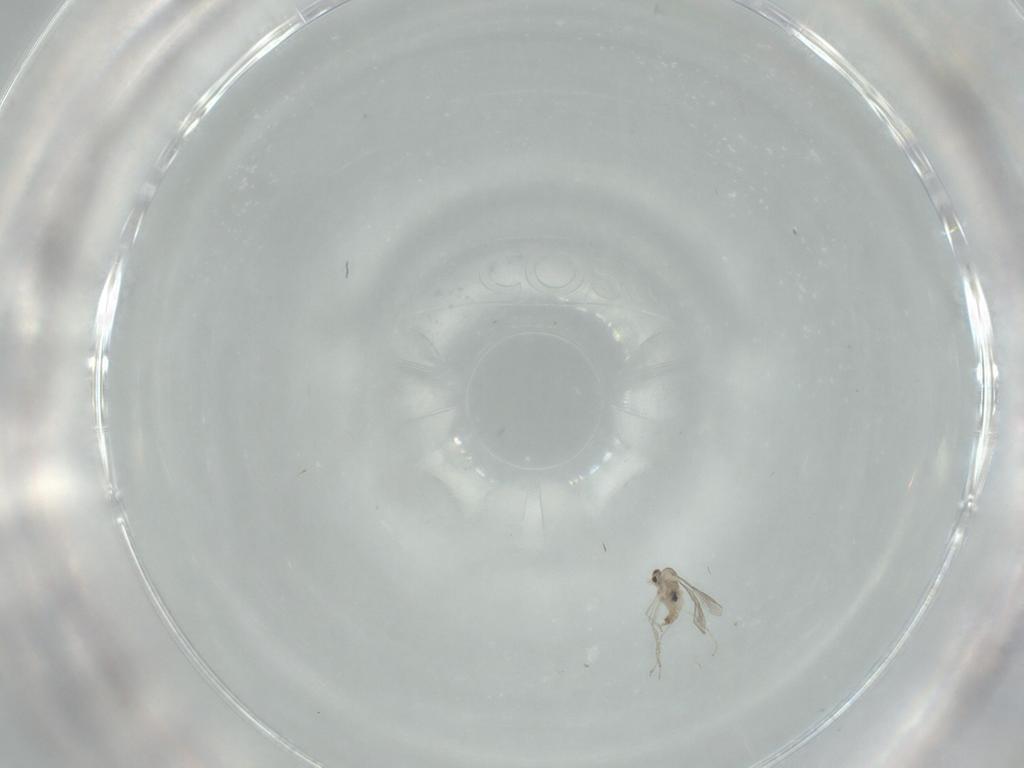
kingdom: Animalia
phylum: Arthropoda
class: Insecta
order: Diptera
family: Cecidomyiidae
